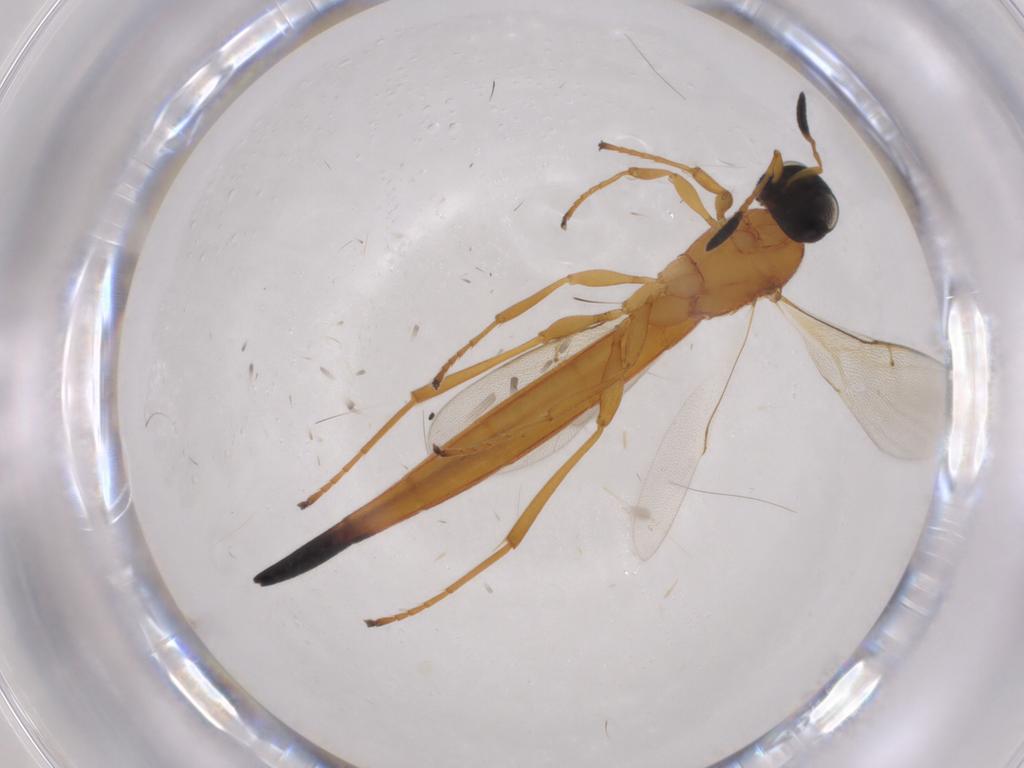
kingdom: Animalia
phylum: Arthropoda
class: Insecta
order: Hymenoptera
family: Scelionidae
